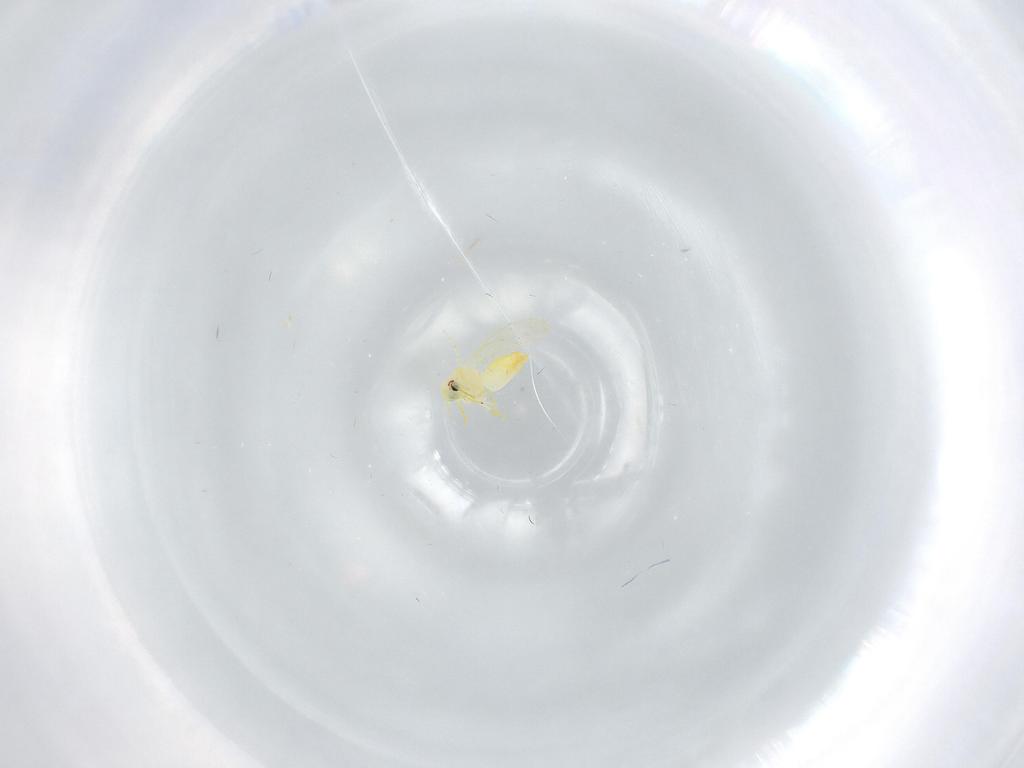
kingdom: Animalia
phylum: Arthropoda
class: Insecta
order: Hemiptera
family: Aleyrodidae
